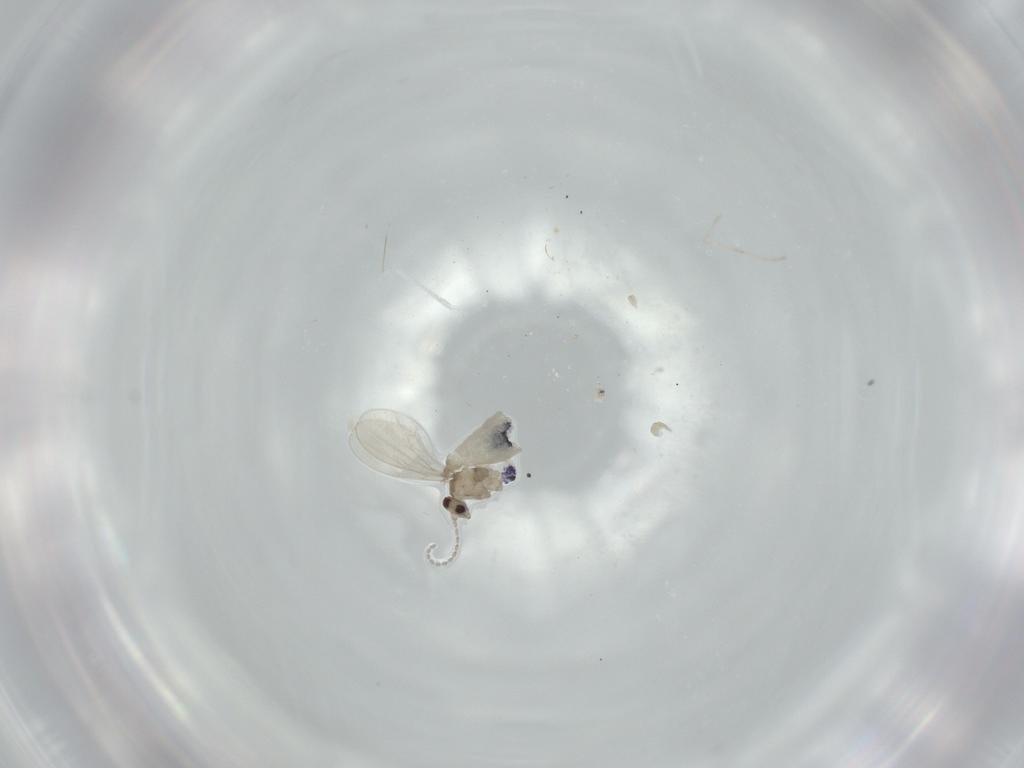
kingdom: Animalia
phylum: Arthropoda
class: Insecta
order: Diptera
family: Cecidomyiidae
